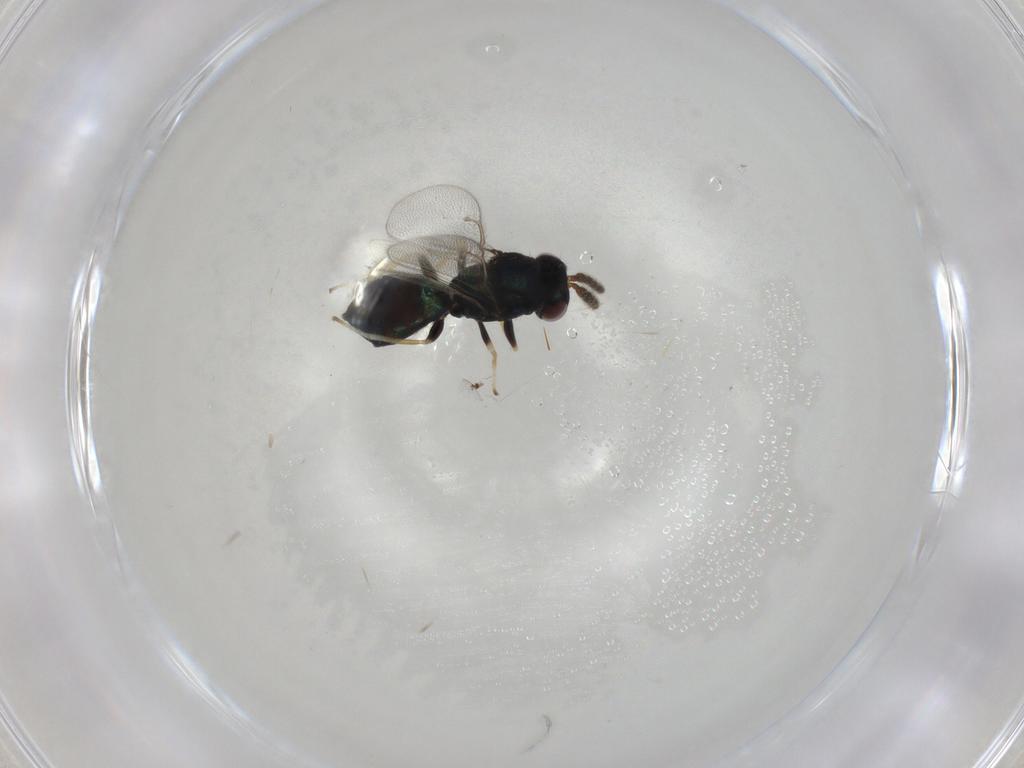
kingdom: Animalia
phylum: Arthropoda
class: Insecta
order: Hymenoptera
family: Eulophidae
